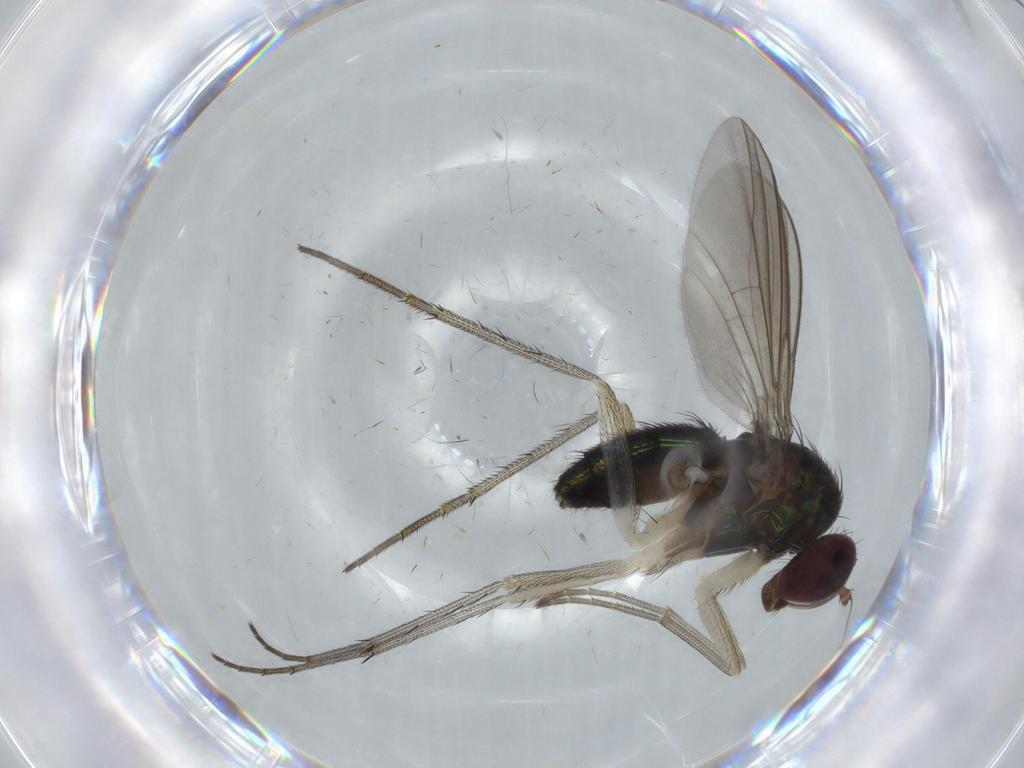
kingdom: Animalia
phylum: Arthropoda
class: Insecta
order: Diptera
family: Dolichopodidae
